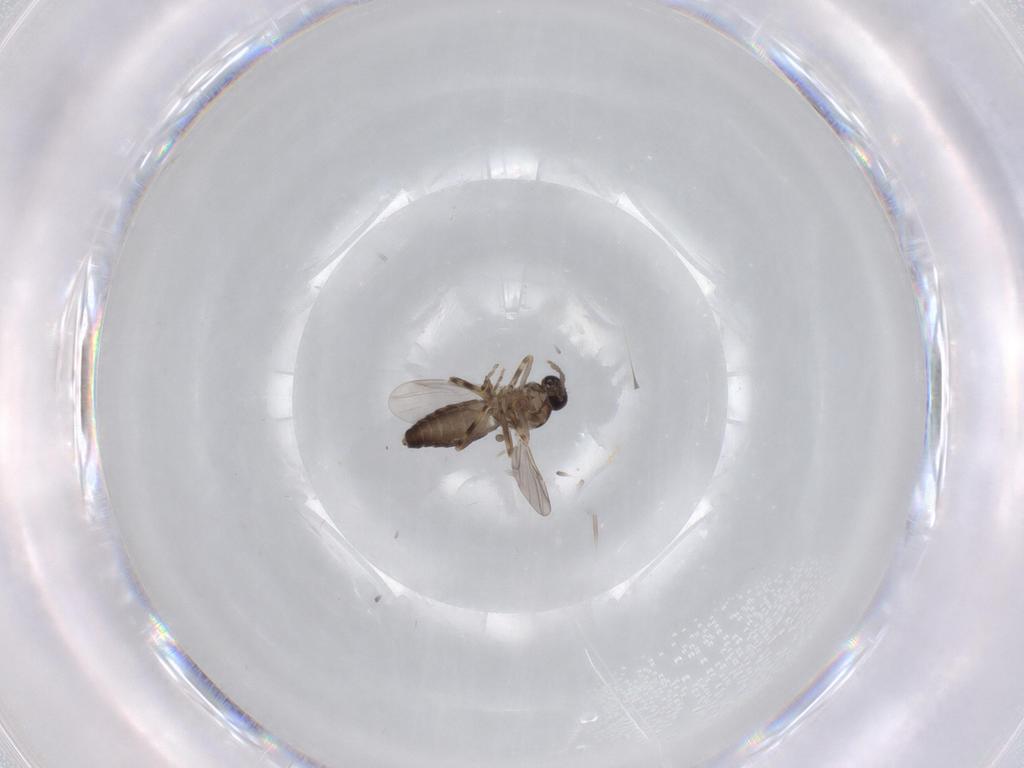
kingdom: Animalia
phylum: Arthropoda
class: Insecta
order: Diptera
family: Ceratopogonidae
